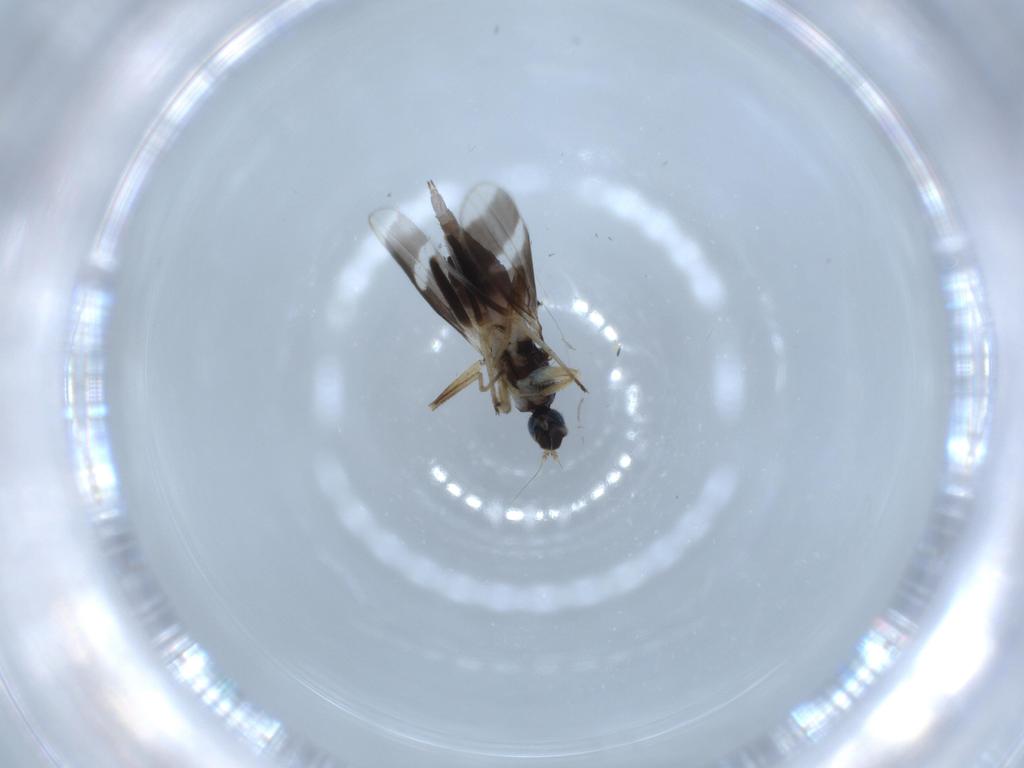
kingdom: Animalia
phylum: Arthropoda
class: Insecta
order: Diptera
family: Hybotidae
